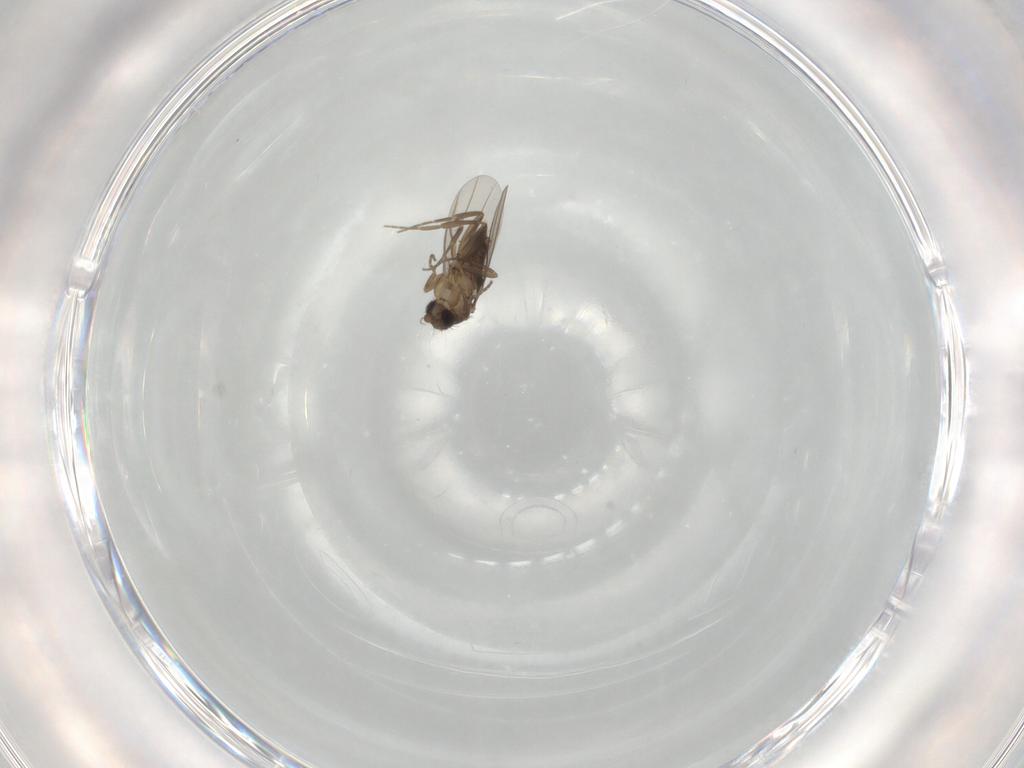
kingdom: Animalia
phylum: Arthropoda
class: Insecta
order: Diptera
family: Phoridae
